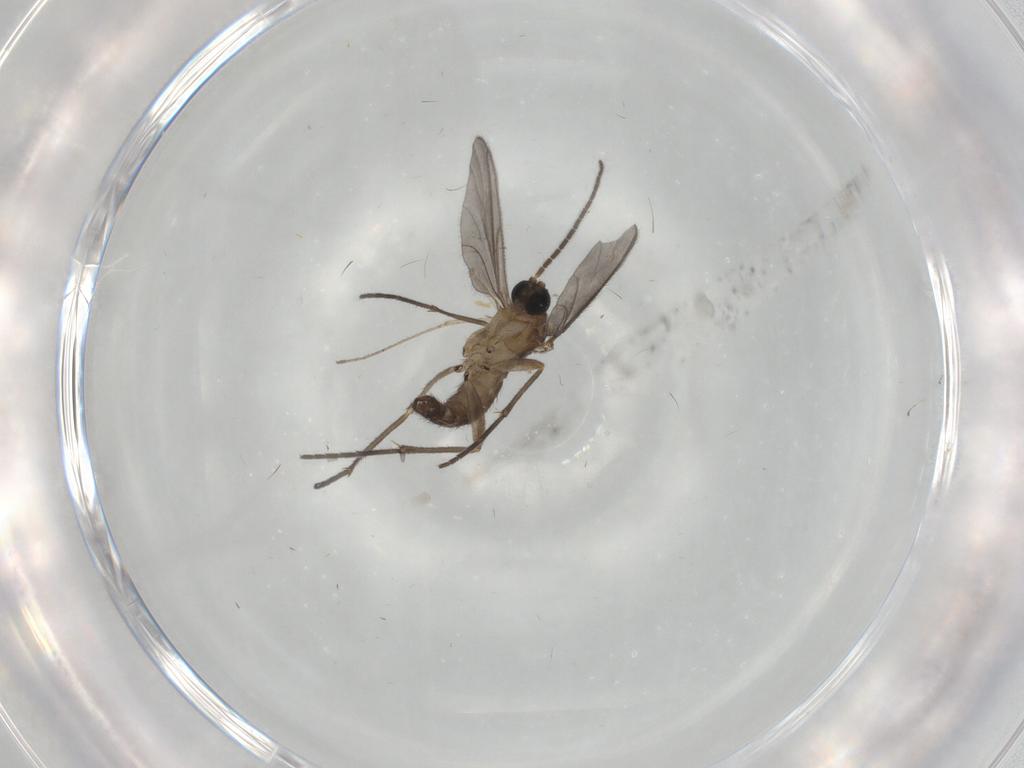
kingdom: Animalia
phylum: Arthropoda
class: Insecta
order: Diptera
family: Sciaridae
